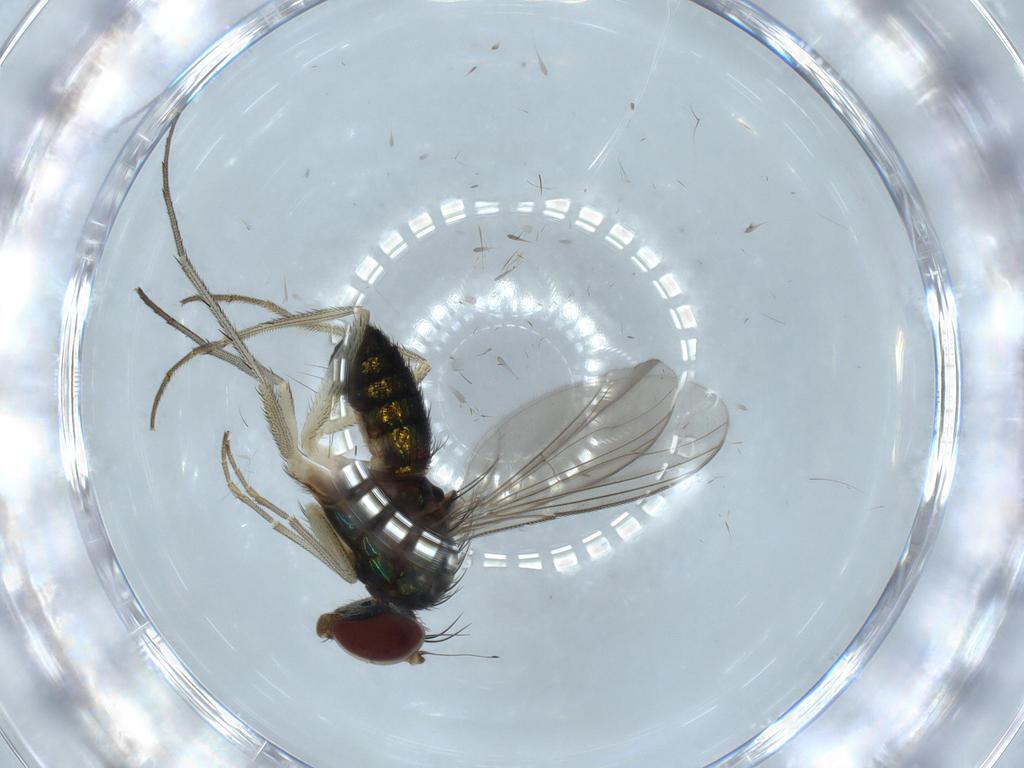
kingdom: Animalia
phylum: Arthropoda
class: Insecta
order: Diptera
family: Dolichopodidae
